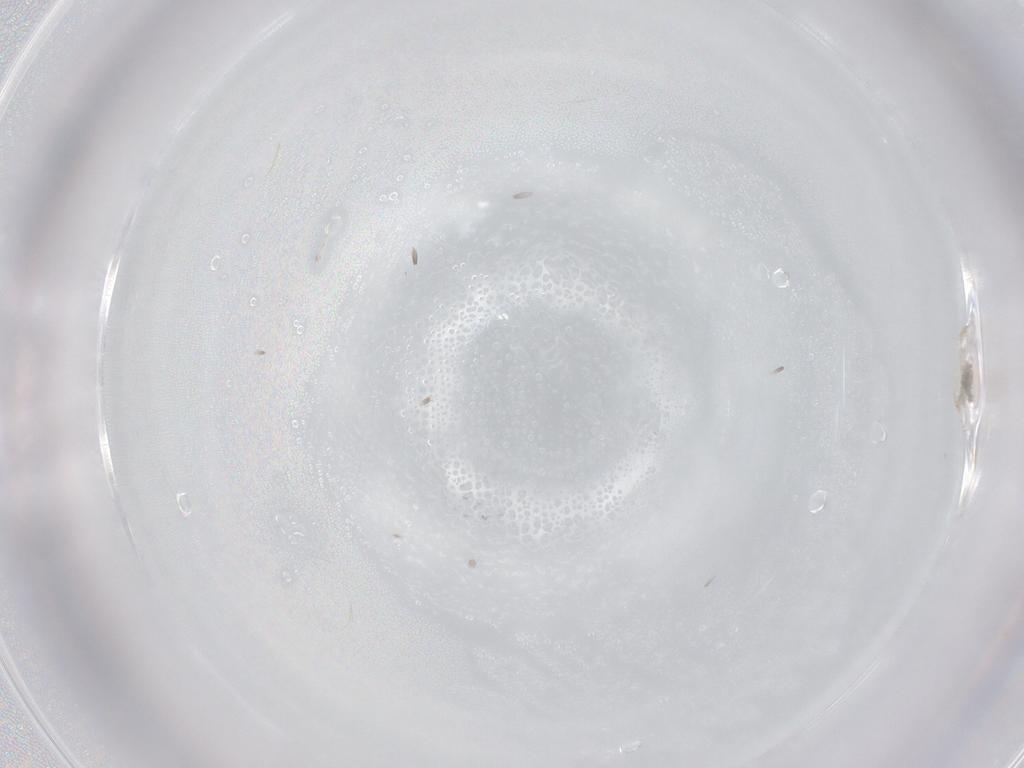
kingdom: Animalia
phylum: Arthropoda
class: Arachnida
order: Trombidiformes
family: Erythraeidae
